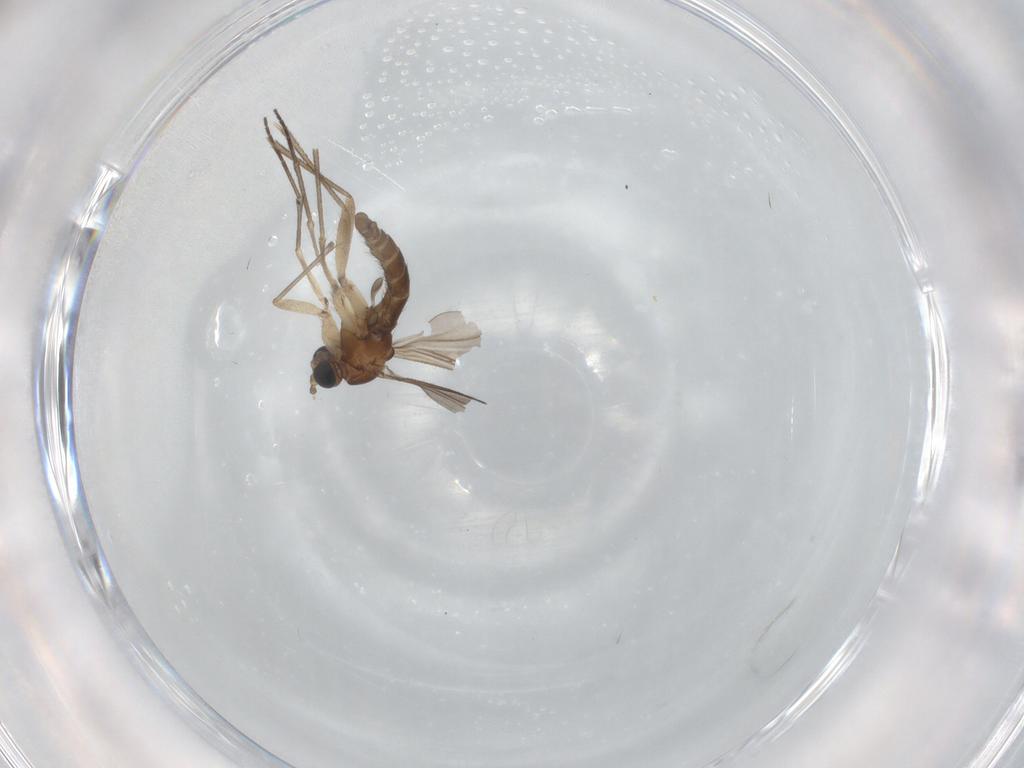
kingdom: Animalia
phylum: Arthropoda
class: Insecta
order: Diptera
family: Sciaridae
